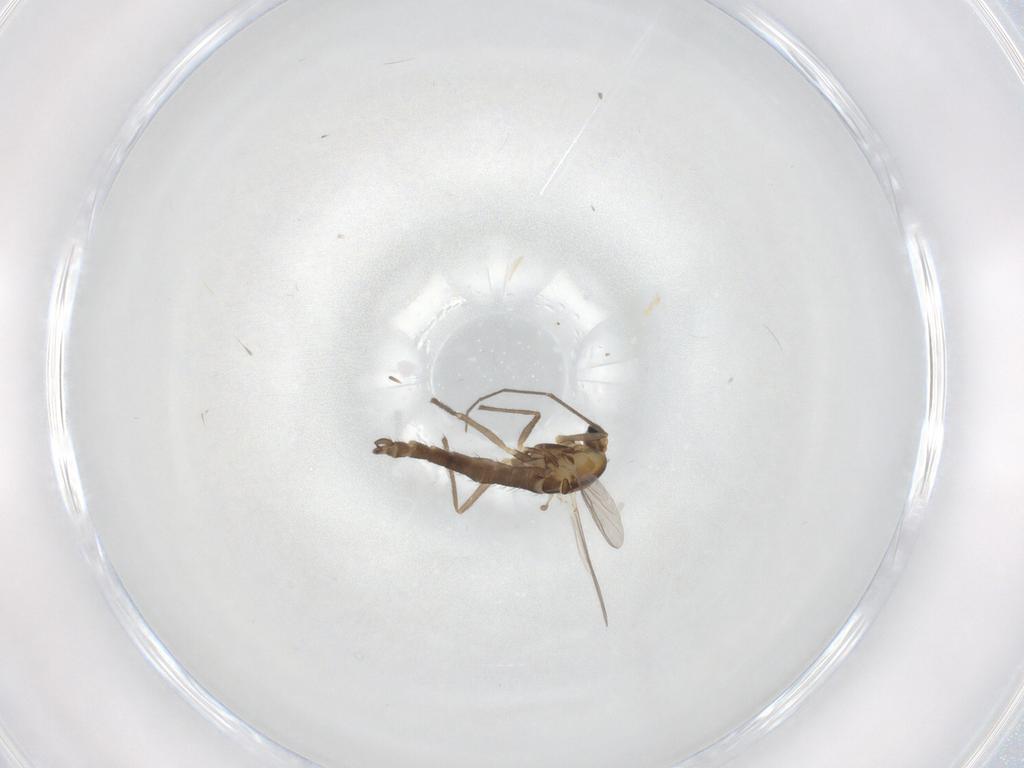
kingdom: Animalia
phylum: Arthropoda
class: Insecta
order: Diptera
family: Chironomidae
